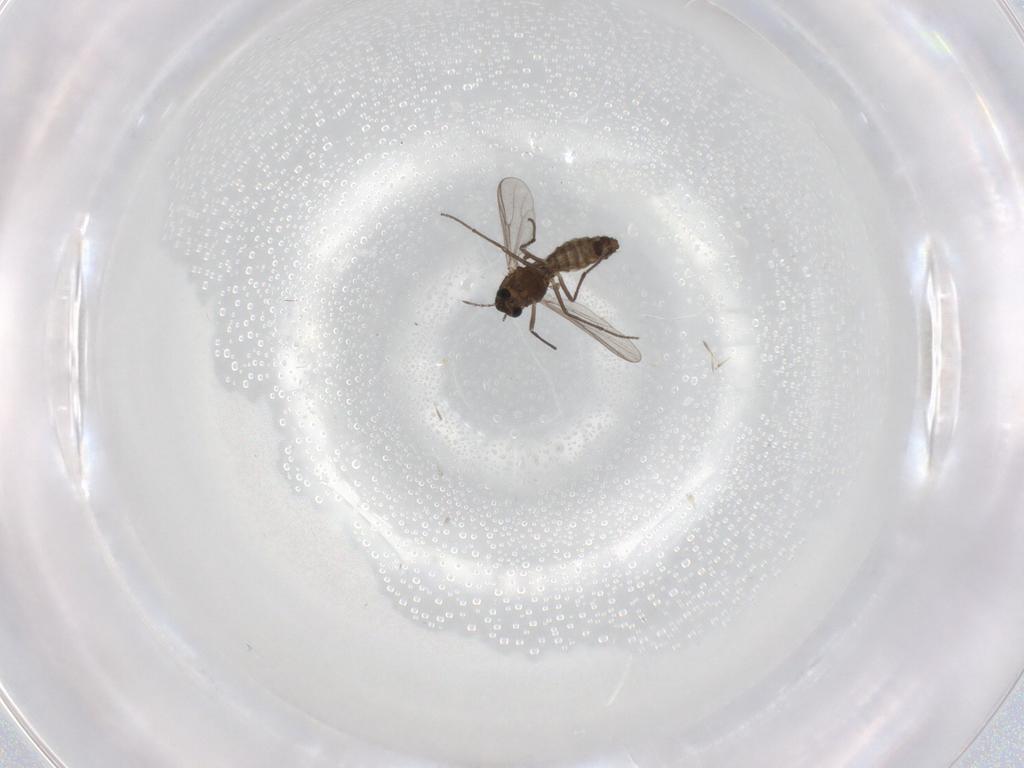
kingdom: Animalia
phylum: Arthropoda
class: Insecta
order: Diptera
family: Chironomidae
